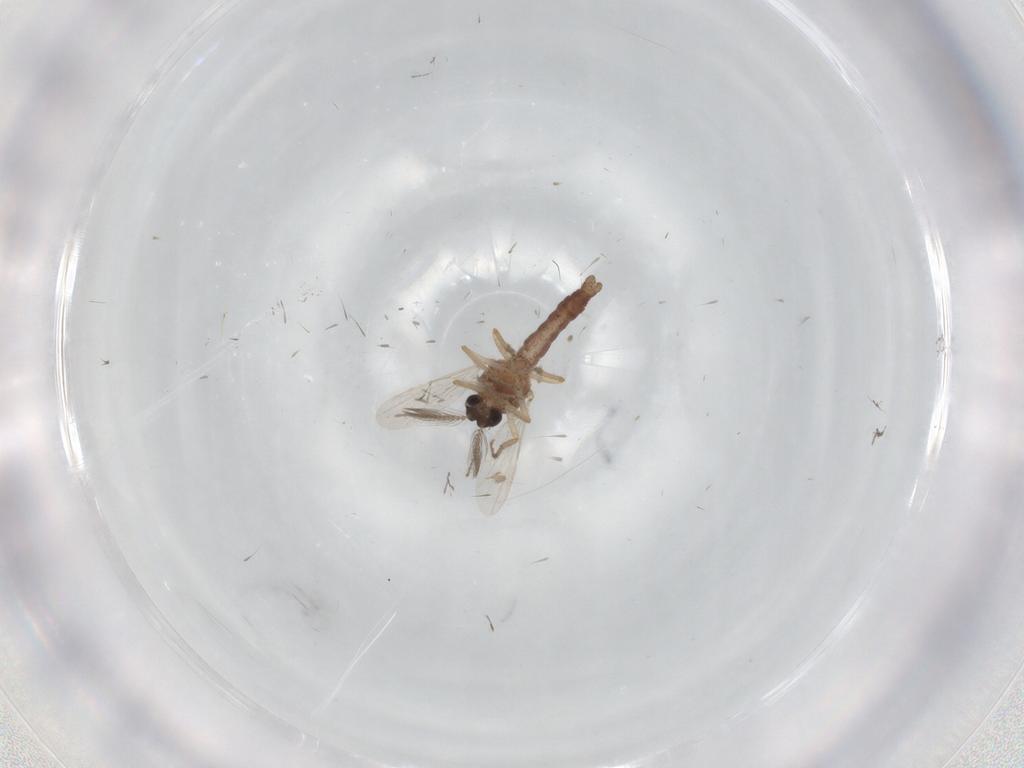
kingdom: Animalia
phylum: Arthropoda
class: Insecta
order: Diptera
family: Ceratopogonidae
